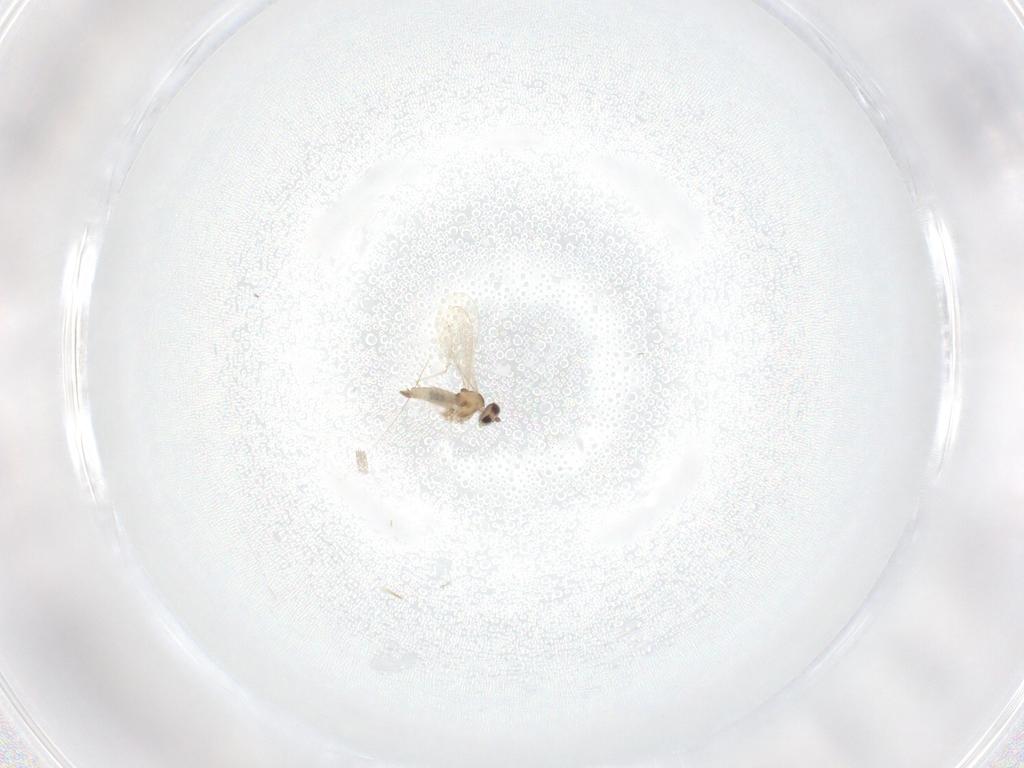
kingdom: Animalia
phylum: Arthropoda
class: Insecta
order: Diptera
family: Cecidomyiidae
